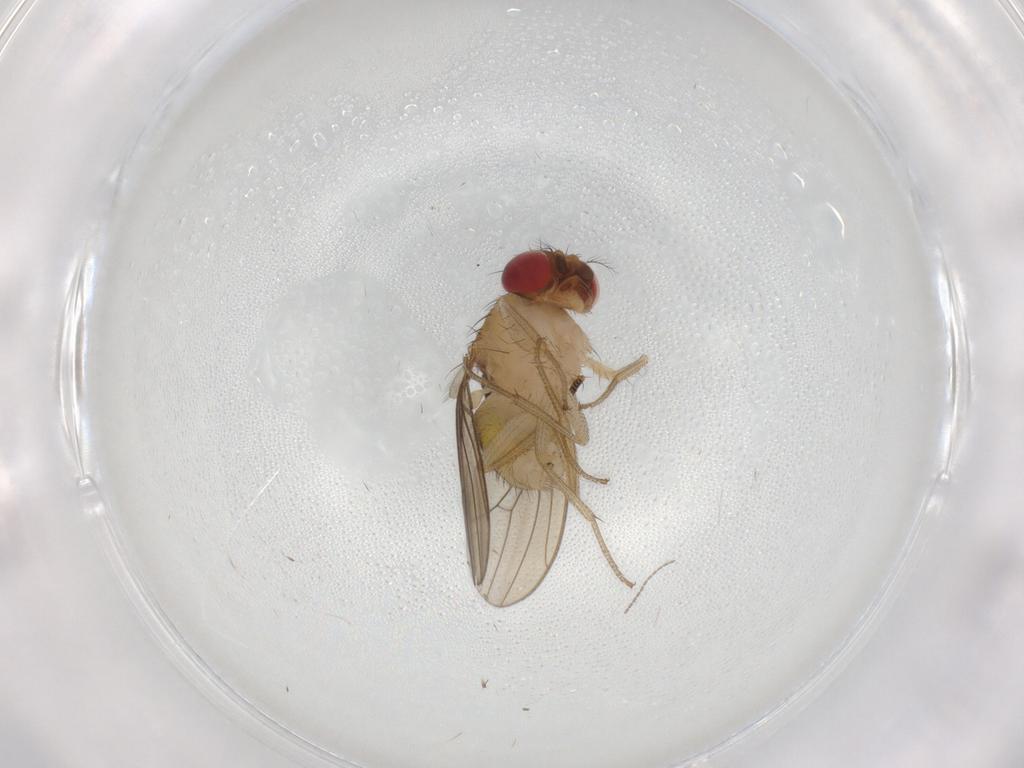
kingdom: Animalia
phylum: Arthropoda
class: Insecta
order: Diptera
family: Drosophilidae
